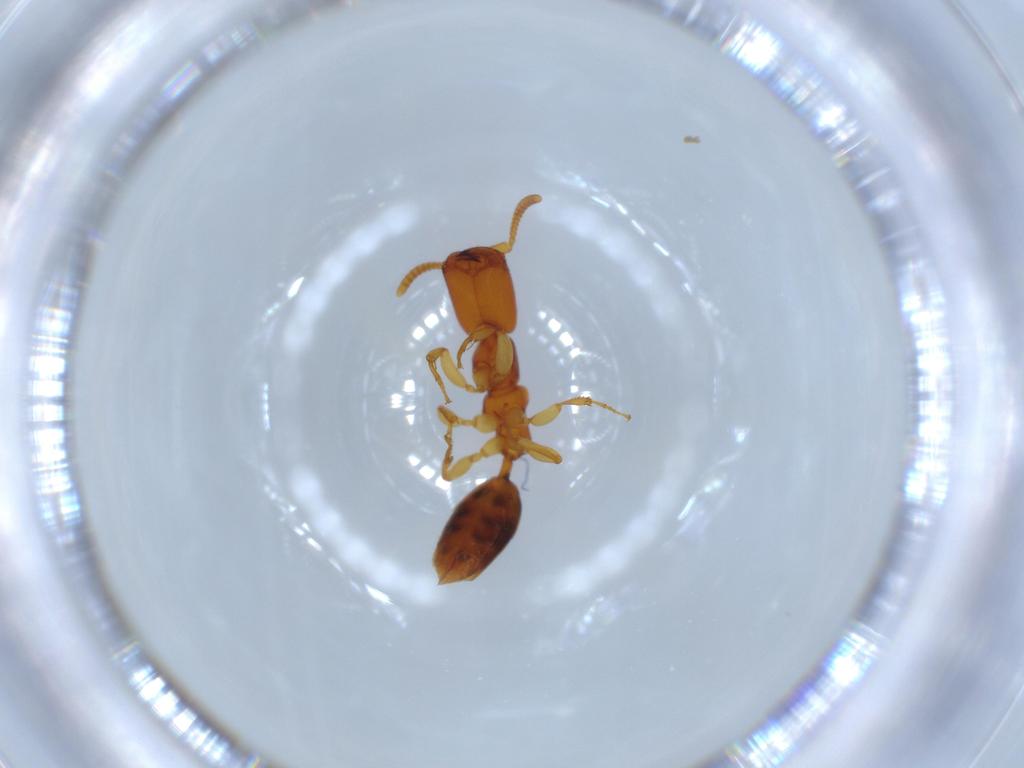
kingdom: Animalia
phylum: Arthropoda
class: Insecta
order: Hymenoptera
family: Bethylidae
